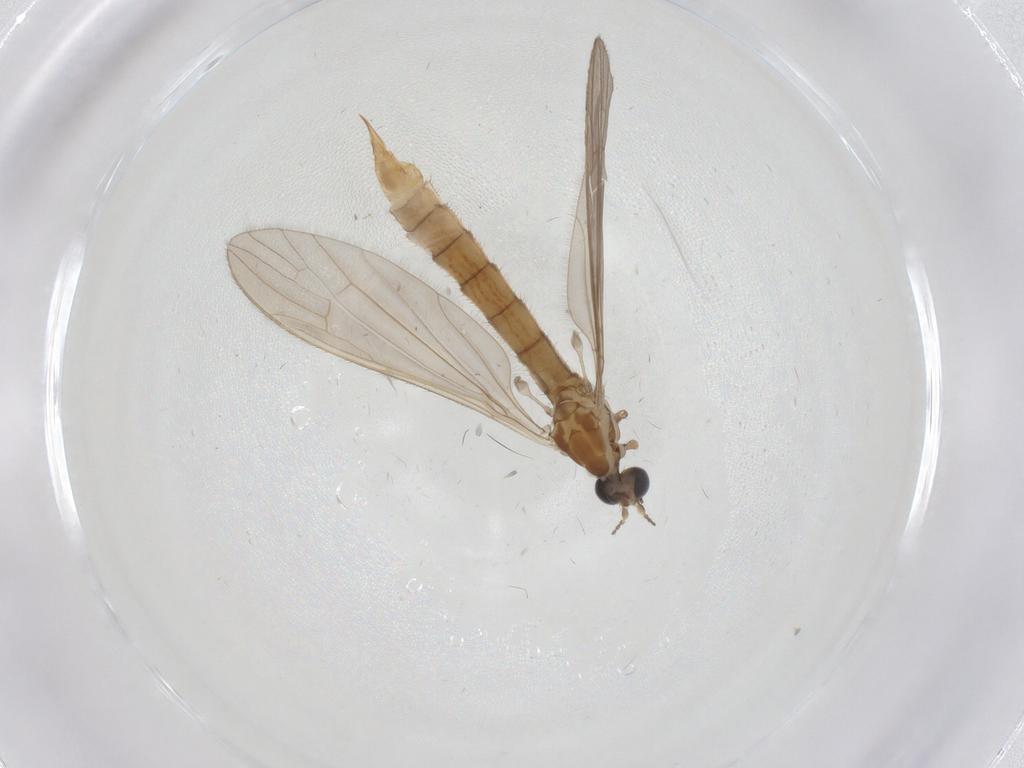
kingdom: Animalia
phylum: Arthropoda
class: Insecta
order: Diptera
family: Limoniidae
